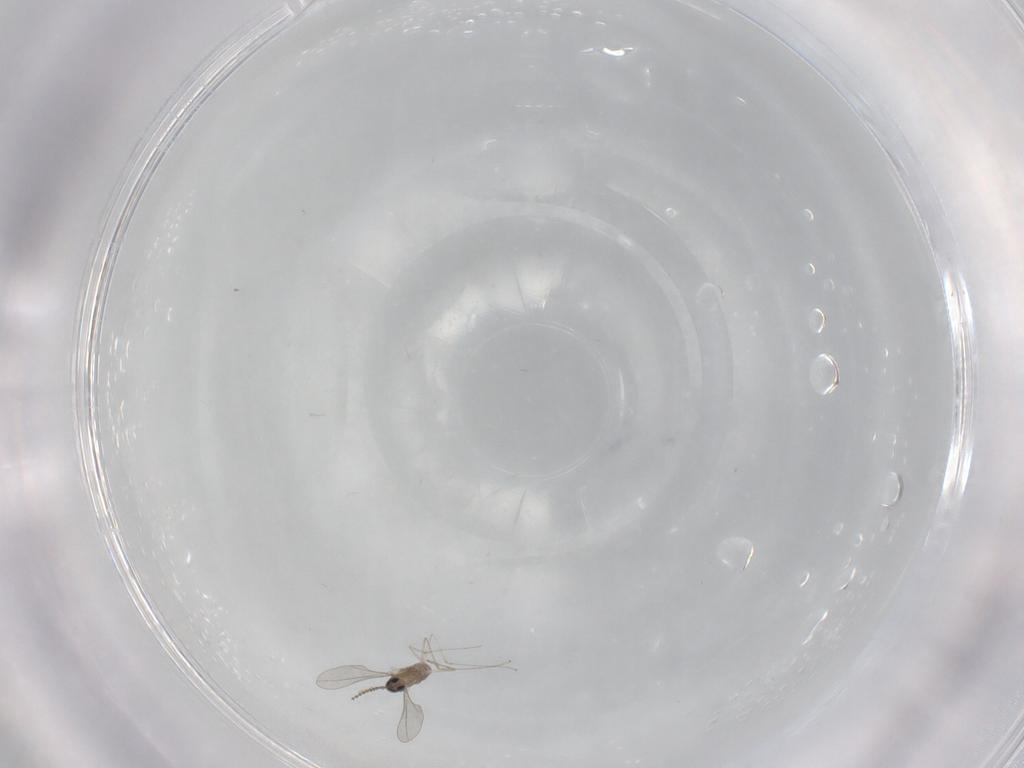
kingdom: Animalia
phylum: Arthropoda
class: Insecta
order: Diptera
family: Cecidomyiidae
